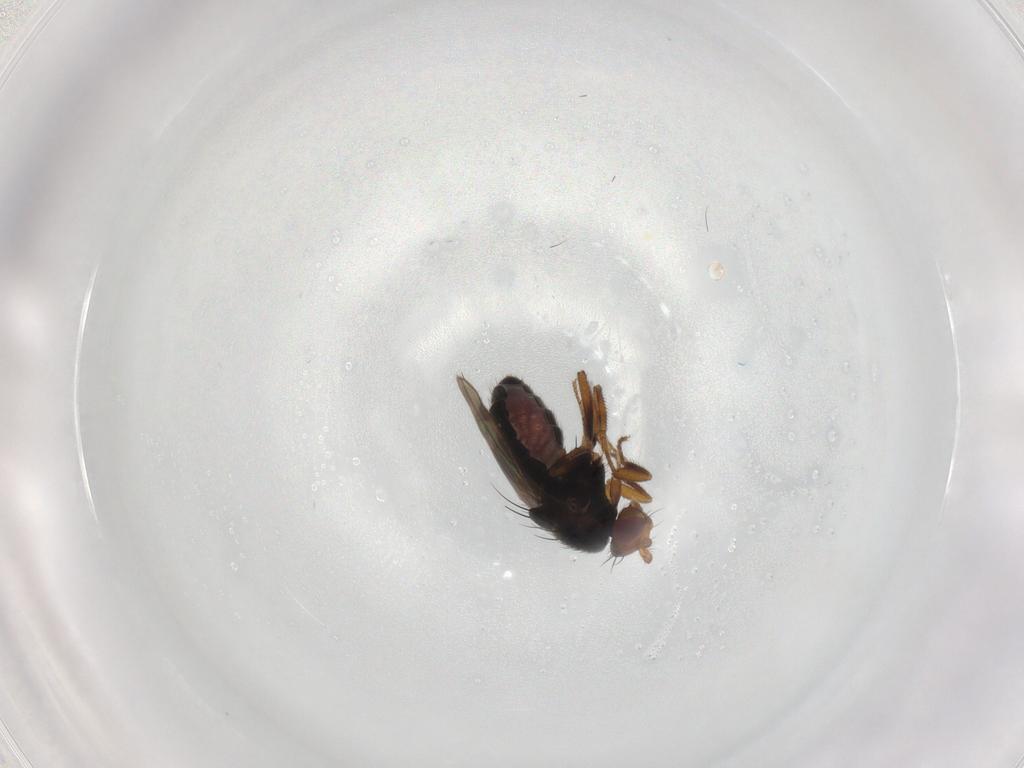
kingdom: Animalia
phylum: Arthropoda
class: Insecta
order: Diptera
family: Sphaeroceridae
